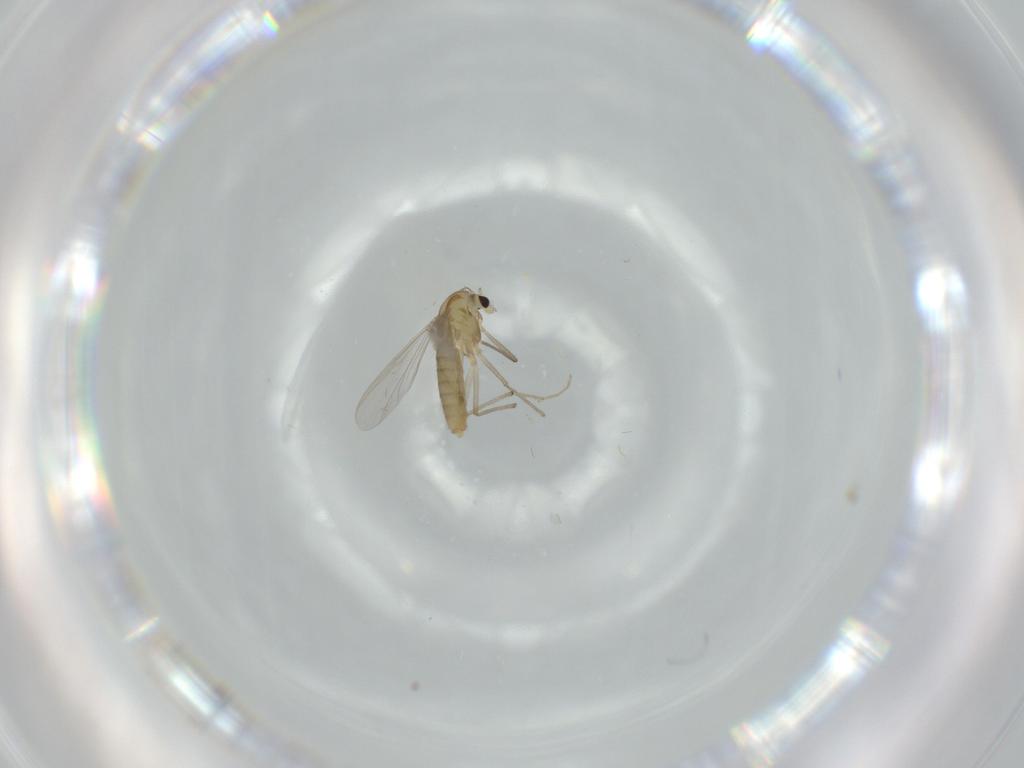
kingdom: Animalia
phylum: Arthropoda
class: Insecta
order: Diptera
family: Chironomidae
